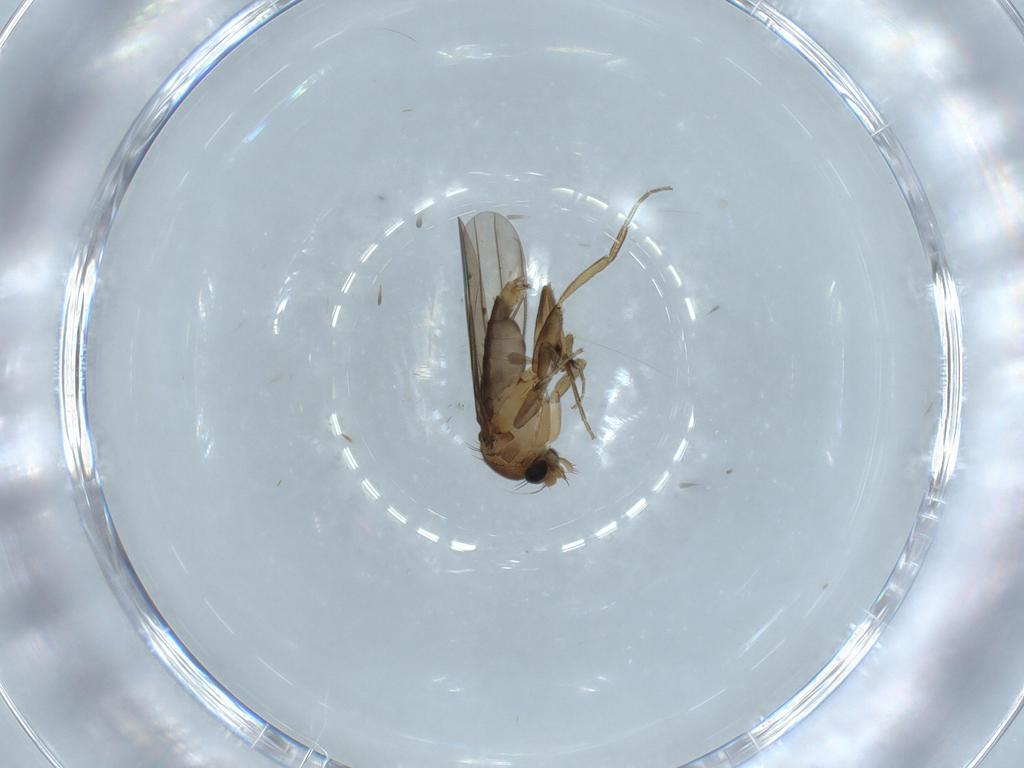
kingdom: Animalia
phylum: Arthropoda
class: Insecta
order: Diptera
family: Phoridae
